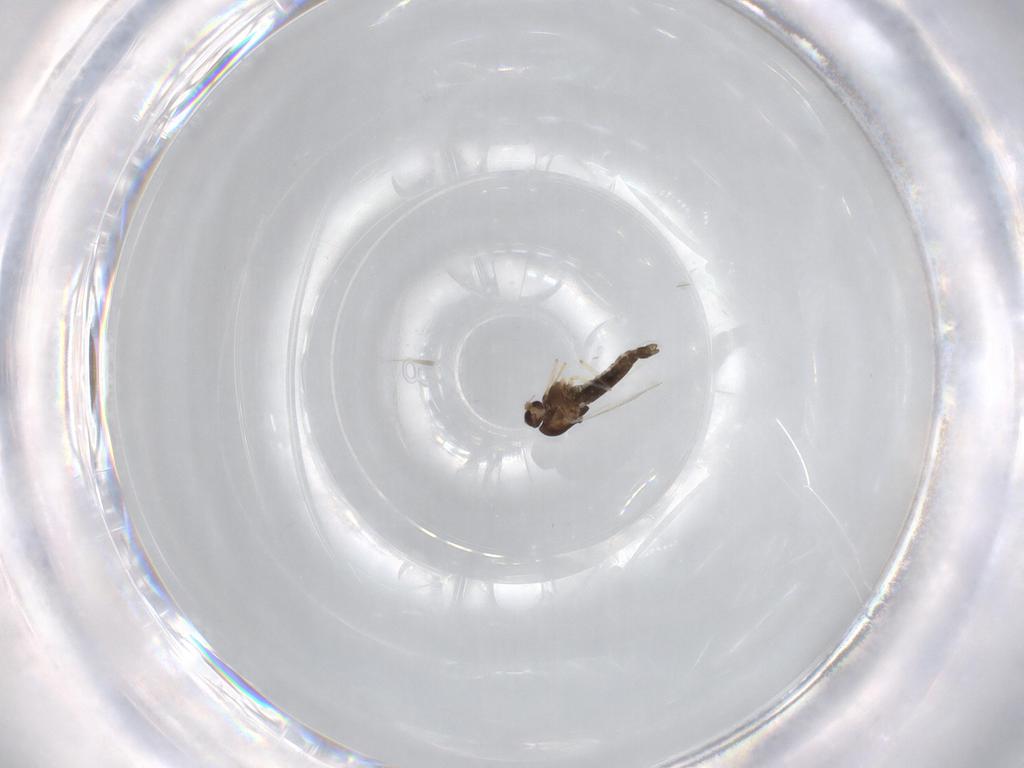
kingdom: Animalia
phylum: Arthropoda
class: Insecta
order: Diptera
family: Chironomidae
